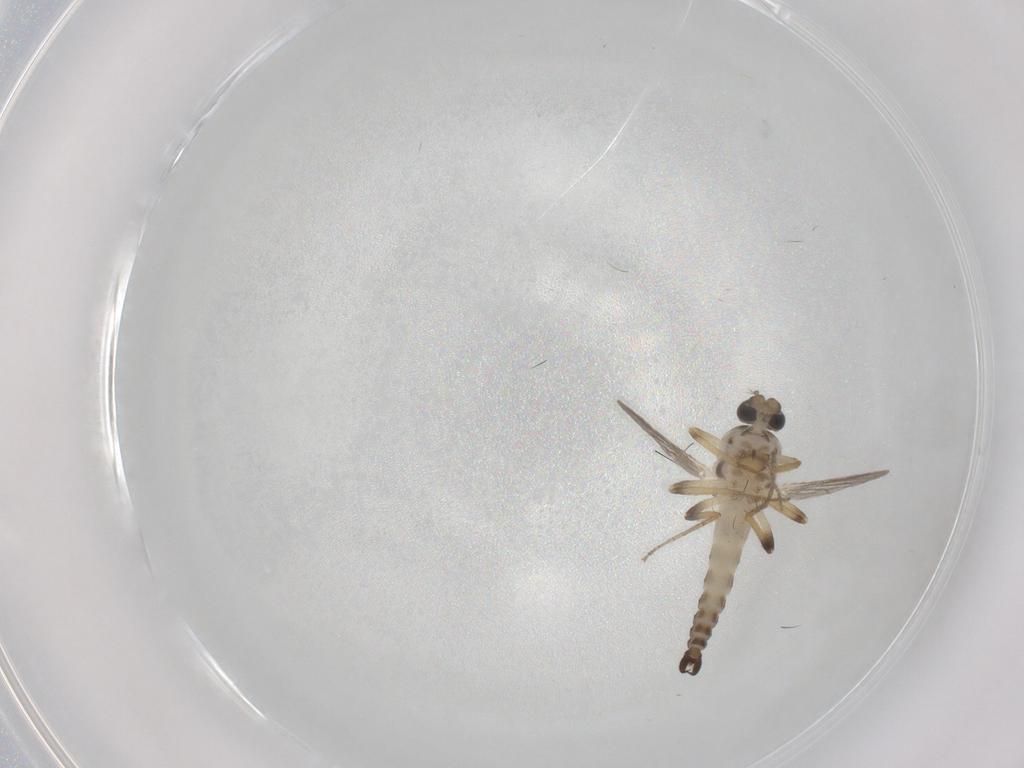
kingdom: Animalia
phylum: Arthropoda
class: Insecta
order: Diptera
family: Ceratopogonidae
